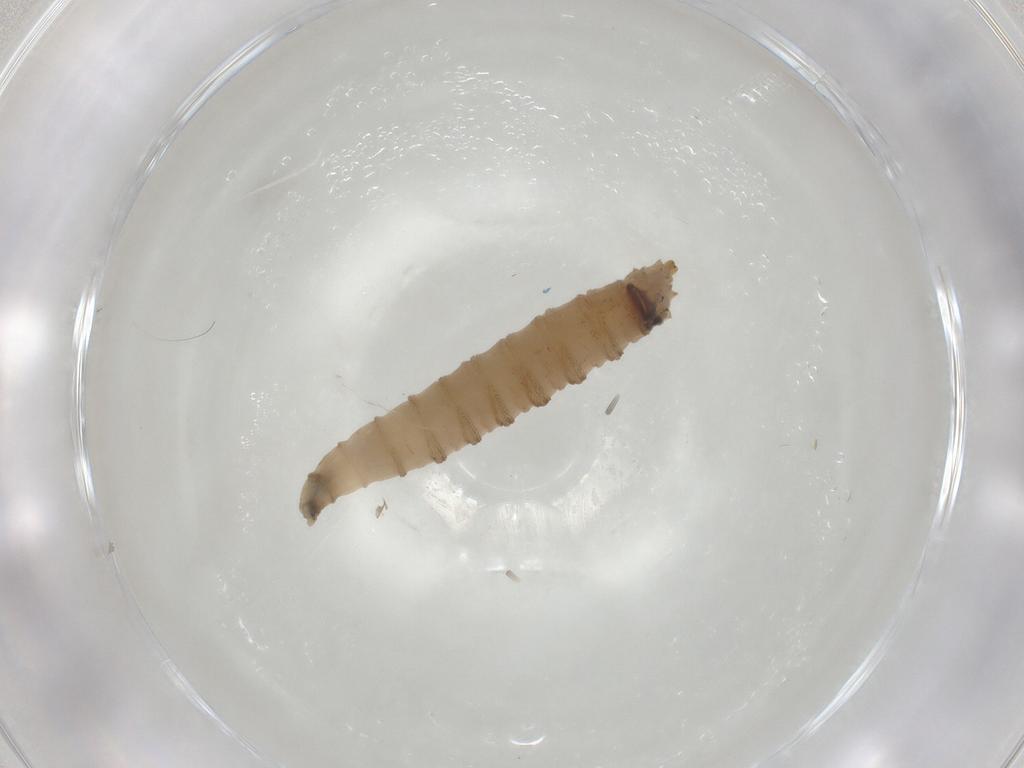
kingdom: Animalia
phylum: Arthropoda
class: Insecta
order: Diptera
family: Drosophilidae
